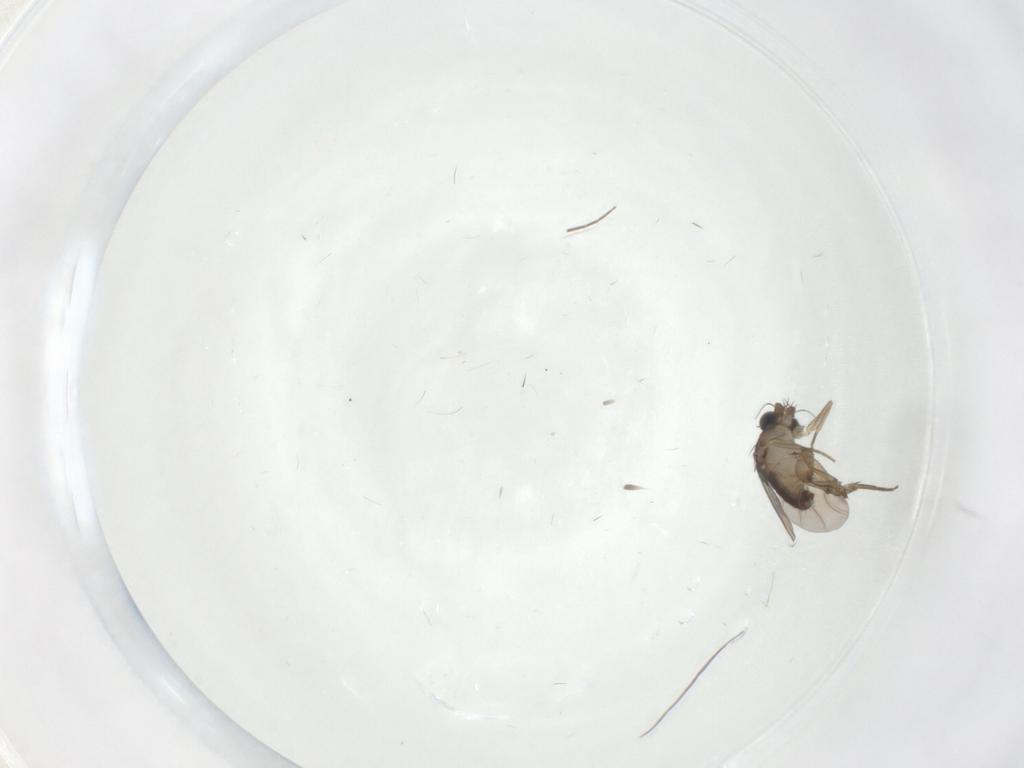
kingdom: Animalia
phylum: Arthropoda
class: Insecta
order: Diptera
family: Phoridae
